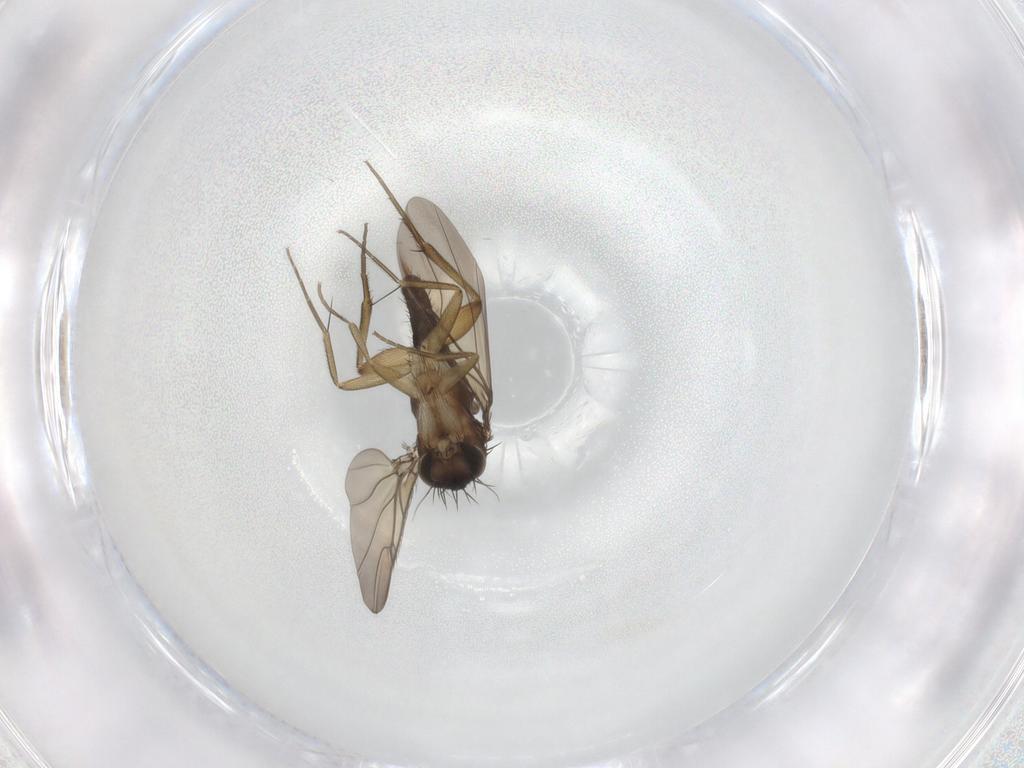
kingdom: Animalia
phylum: Arthropoda
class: Insecta
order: Diptera
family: Phoridae
